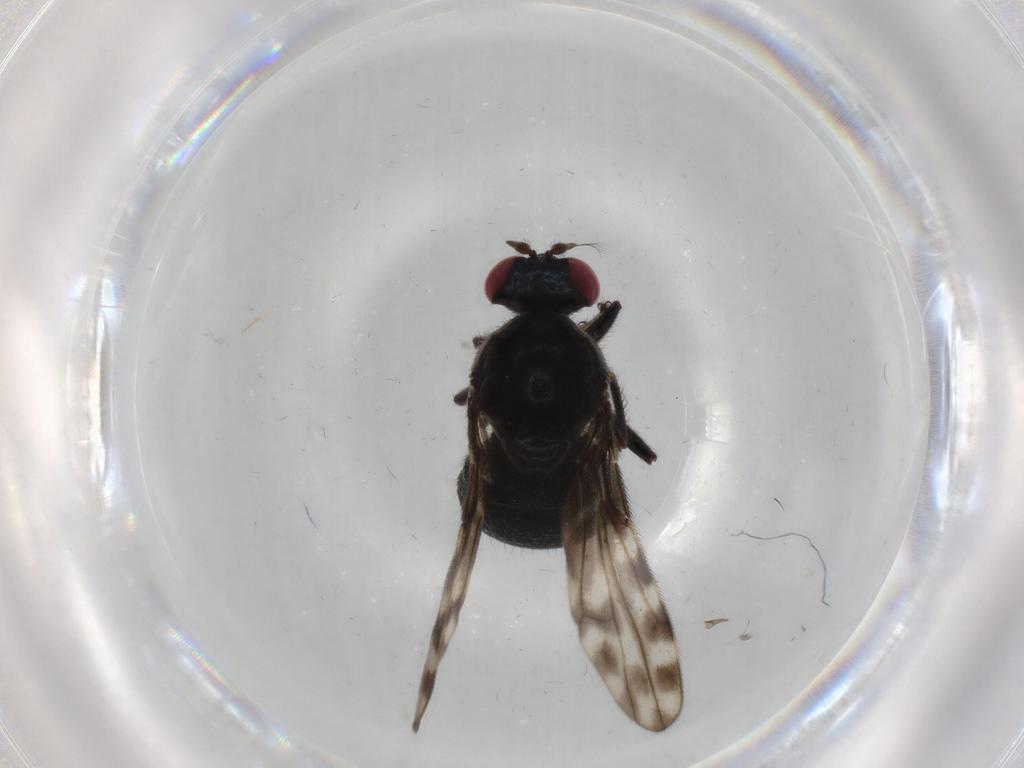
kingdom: Animalia
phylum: Arthropoda
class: Insecta
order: Diptera
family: Ephydridae
